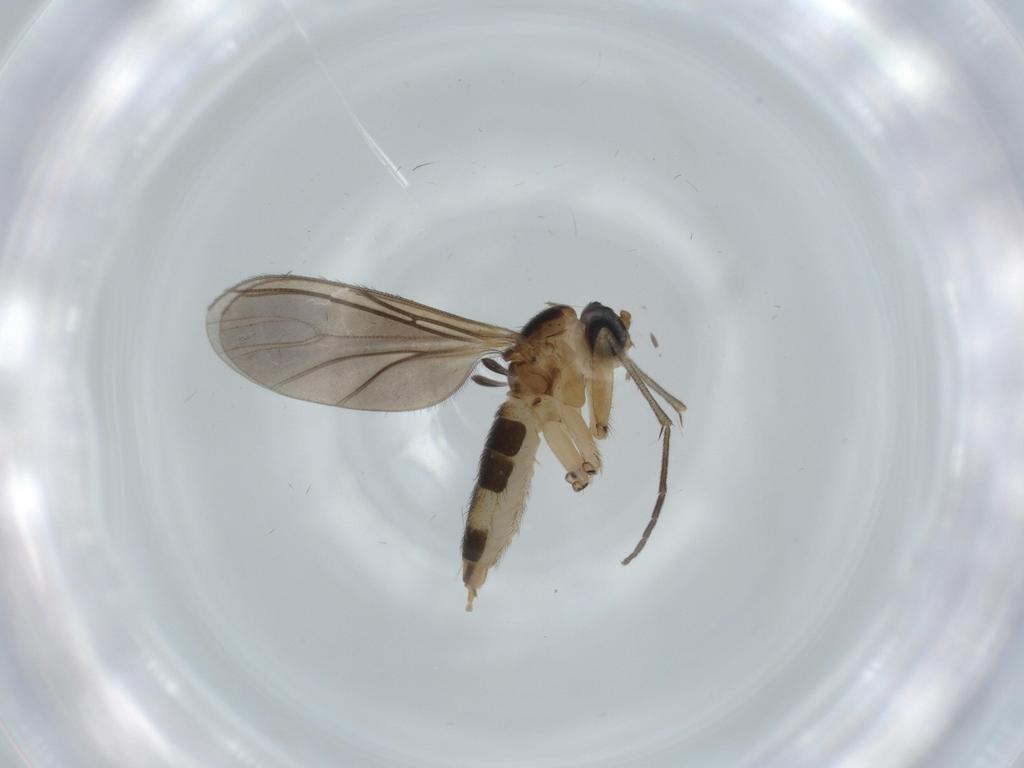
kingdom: Animalia
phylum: Arthropoda
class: Insecta
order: Diptera
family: Sciaridae
